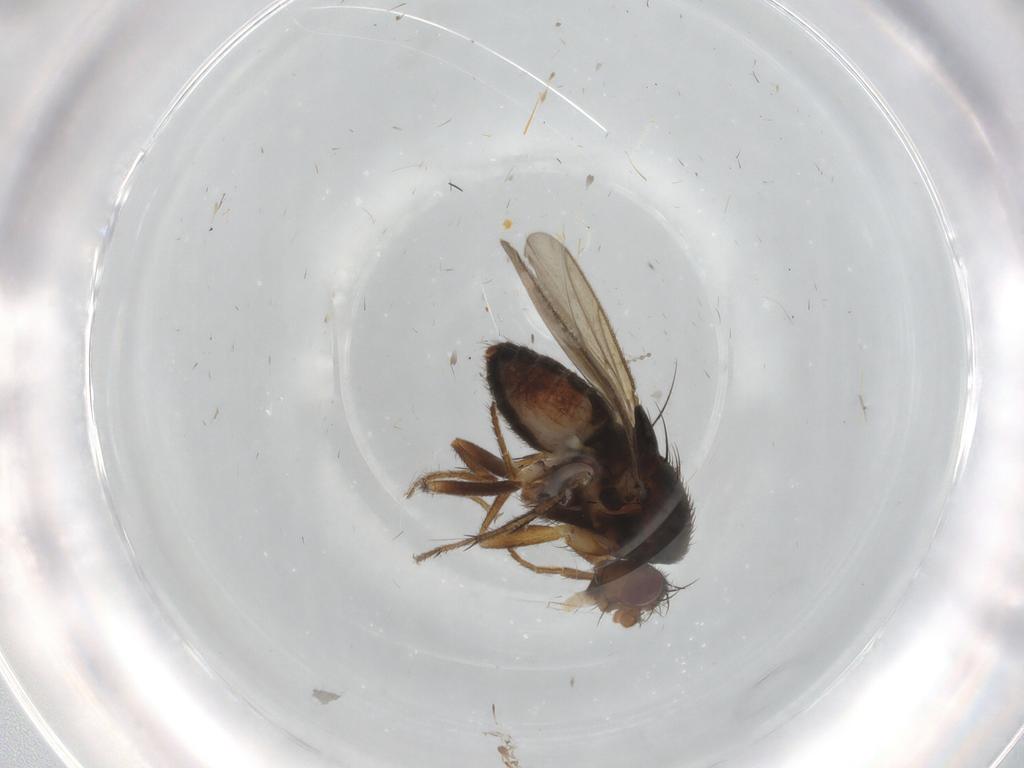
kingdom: Animalia
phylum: Arthropoda
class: Insecta
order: Diptera
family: Sphaeroceridae
